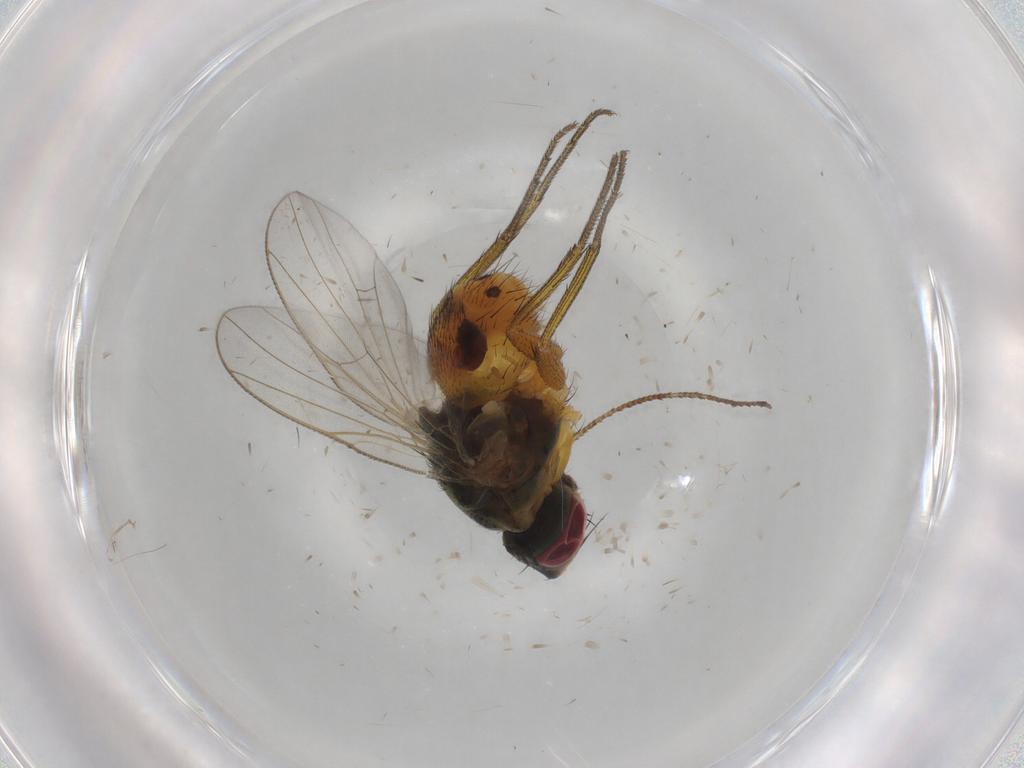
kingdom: Animalia
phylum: Arthropoda
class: Insecta
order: Diptera
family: Muscidae
